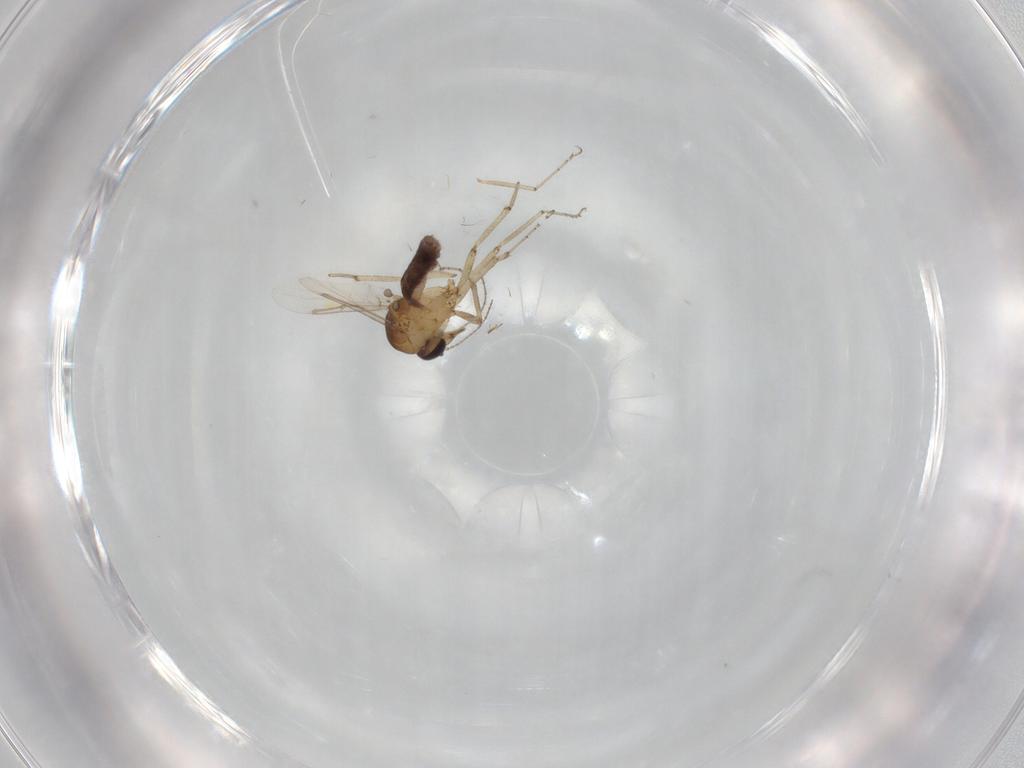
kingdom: Animalia
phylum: Arthropoda
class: Insecta
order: Diptera
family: Ceratopogonidae
